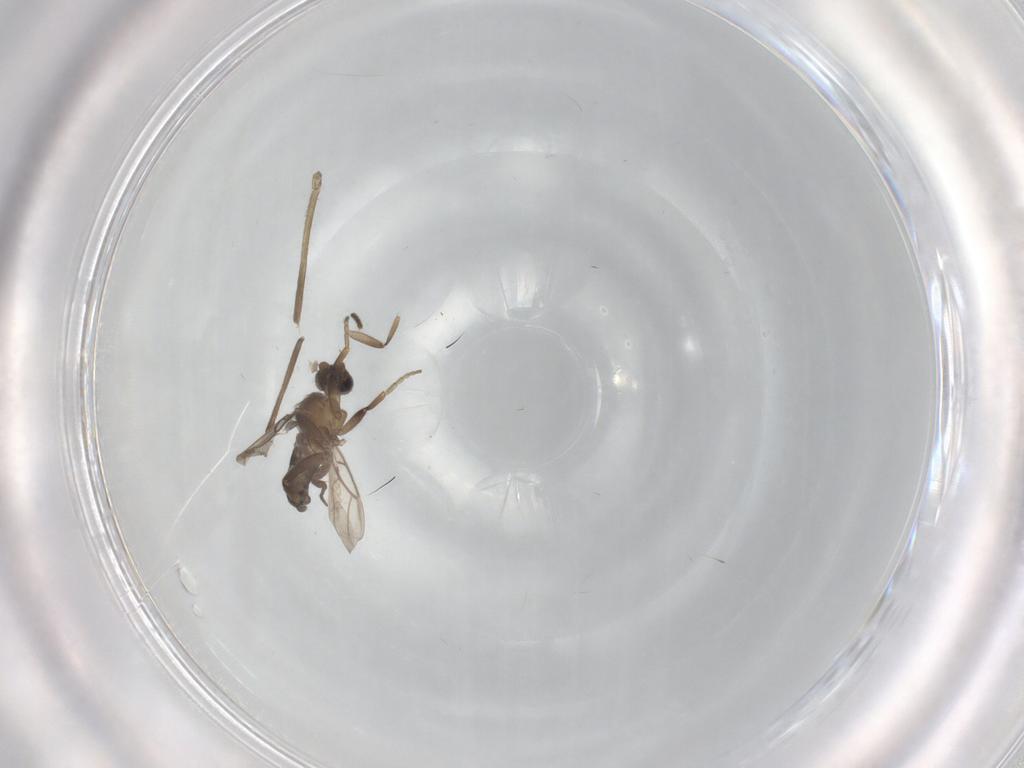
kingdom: Animalia
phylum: Arthropoda
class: Insecta
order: Diptera
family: Phoridae
